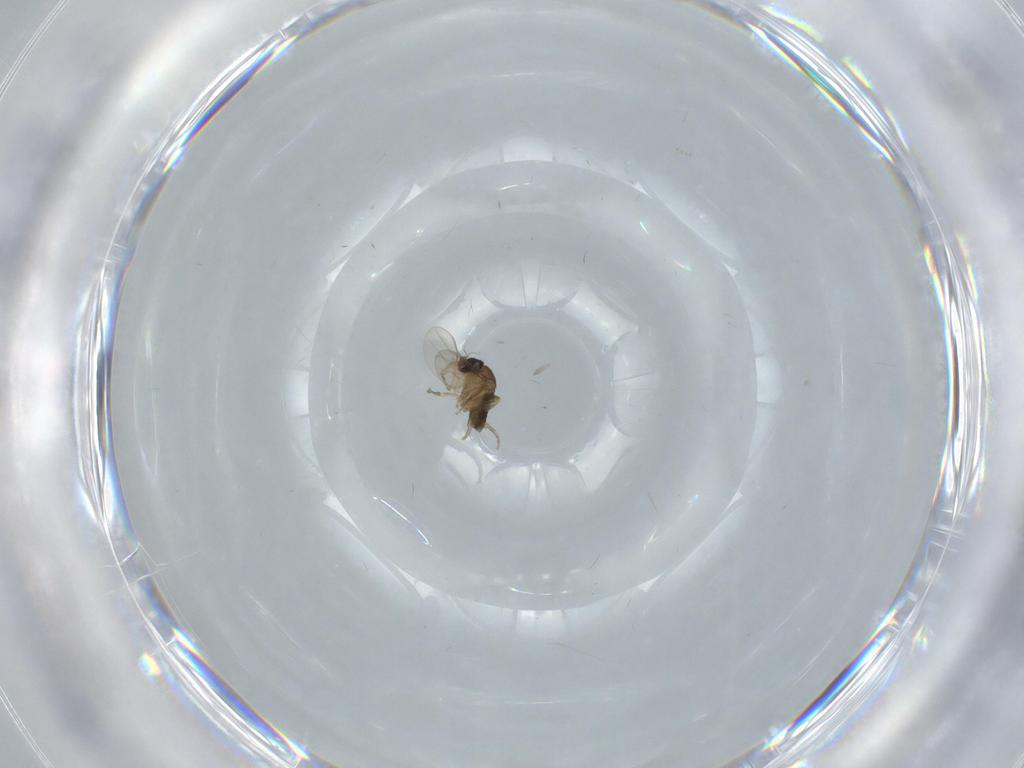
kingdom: Animalia
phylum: Arthropoda
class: Insecta
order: Diptera
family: Phoridae
